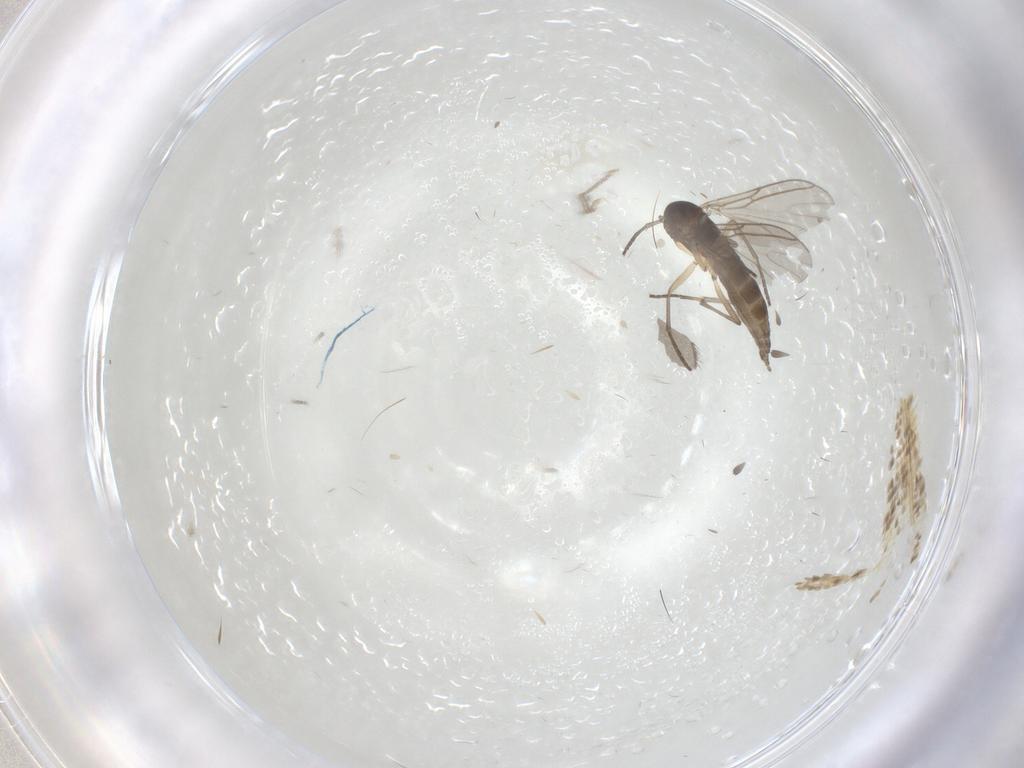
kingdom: Animalia
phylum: Arthropoda
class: Insecta
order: Diptera
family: Sciaridae
